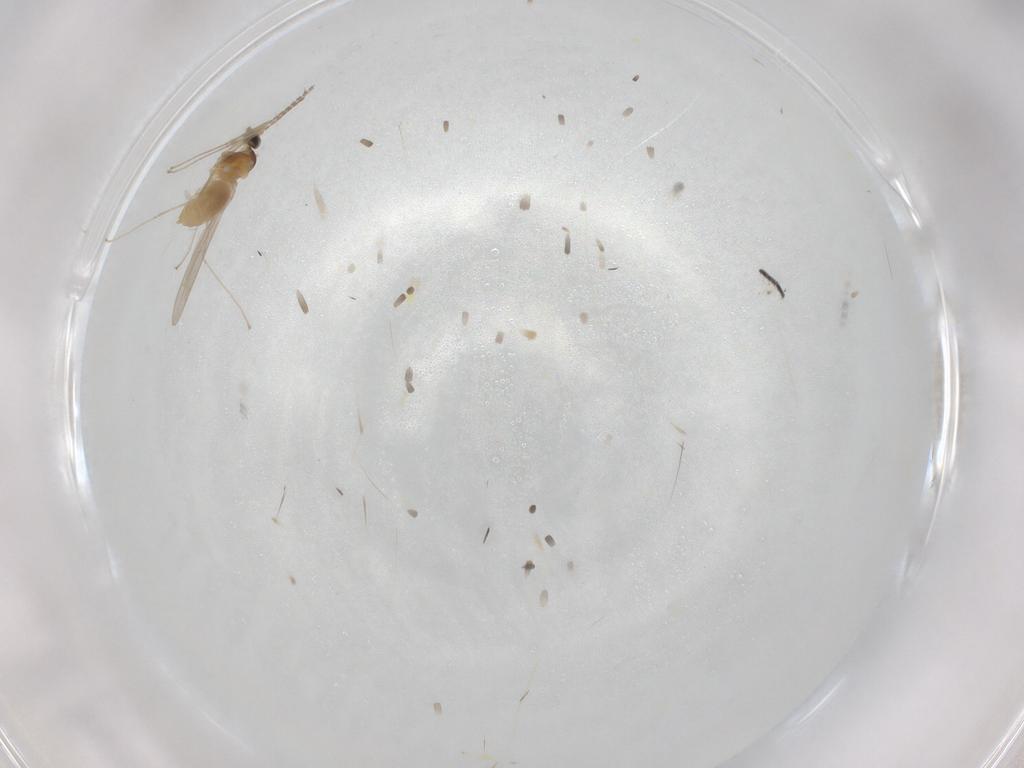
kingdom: Animalia
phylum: Arthropoda
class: Insecta
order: Diptera
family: Cecidomyiidae
